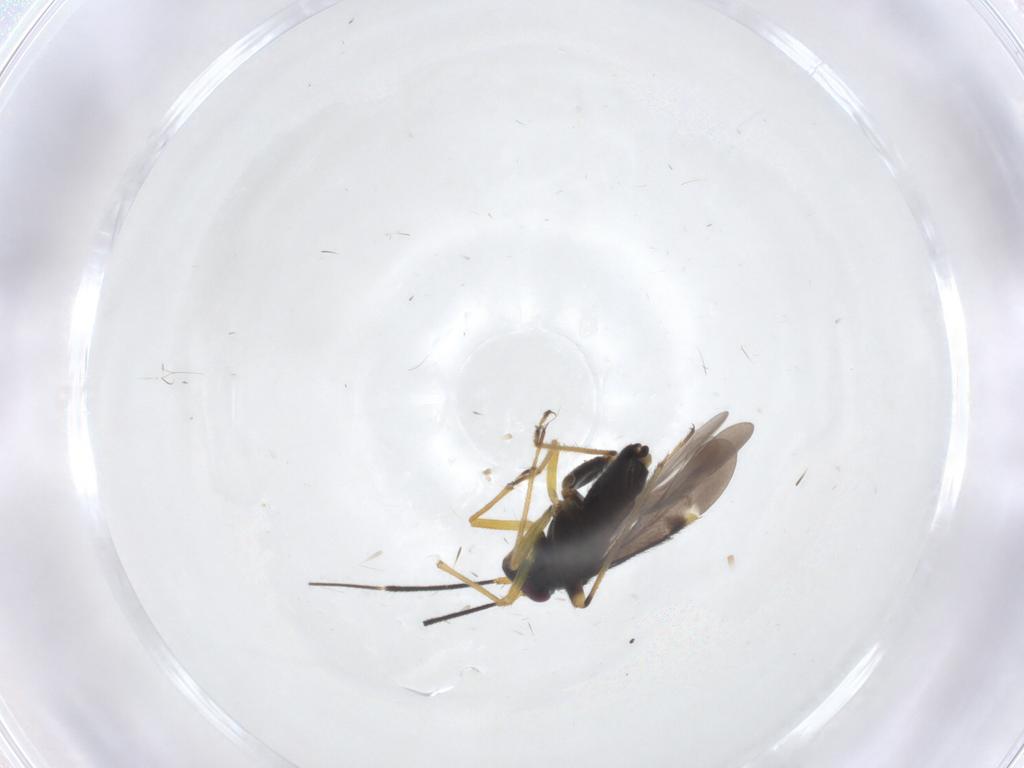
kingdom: Animalia
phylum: Arthropoda
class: Insecta
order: Hemiptera
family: Miridae
